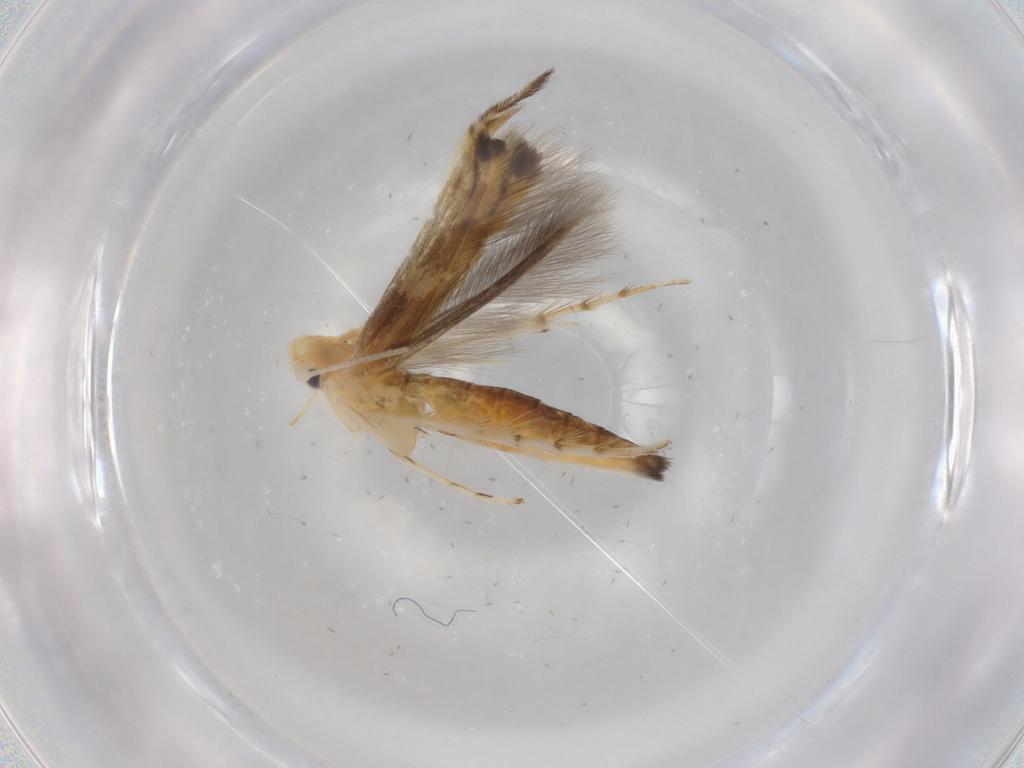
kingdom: Animalia
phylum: Arthropoda
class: Insecta
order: Lepidoptera
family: Lyonetiidae
